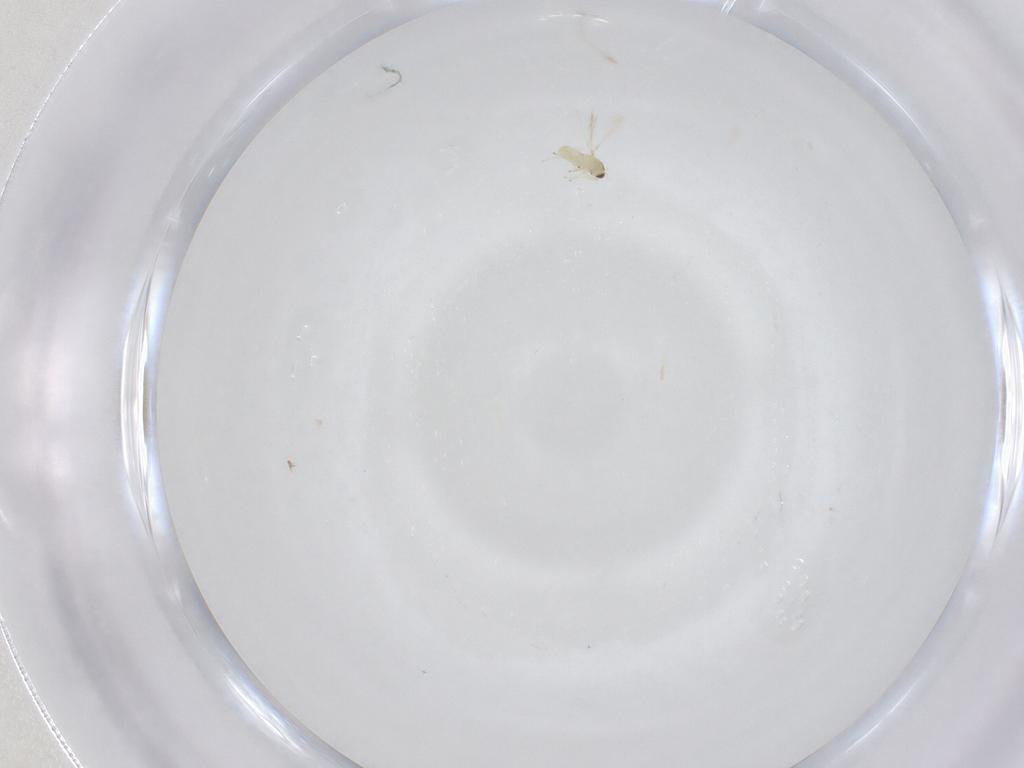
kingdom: Animalia
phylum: Arthropoda
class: Insecta
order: Hymenoptera
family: Mymaridae
